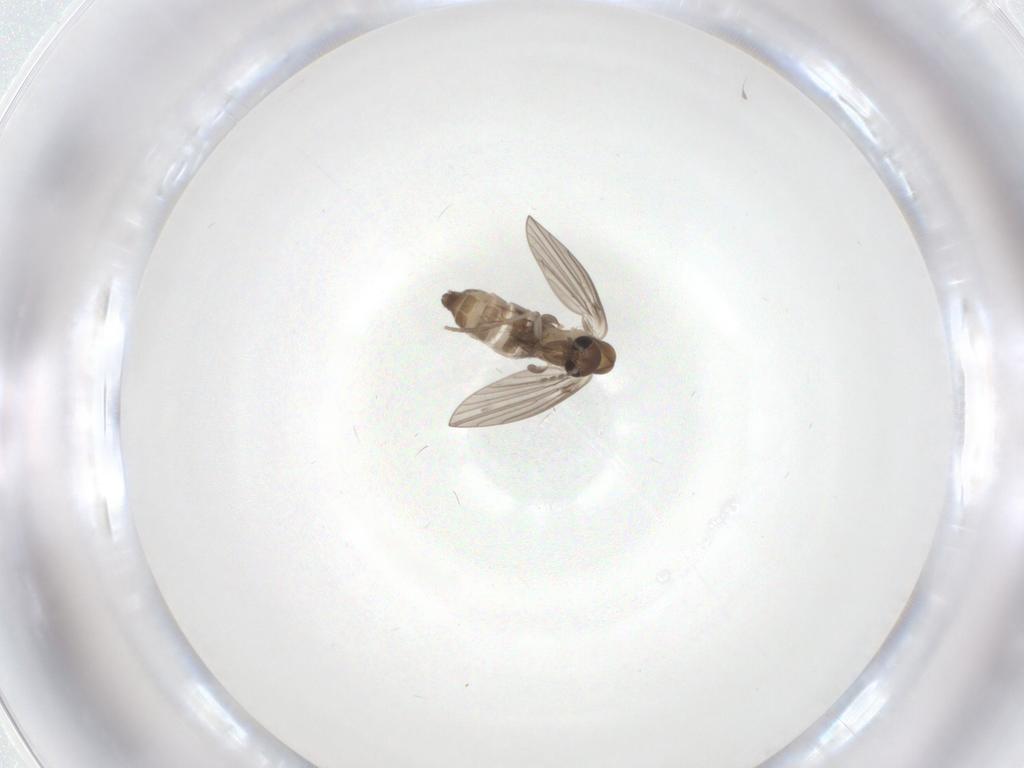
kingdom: Animalia
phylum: Arthropoda
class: Insecta
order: Diptera
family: Psychodidae
